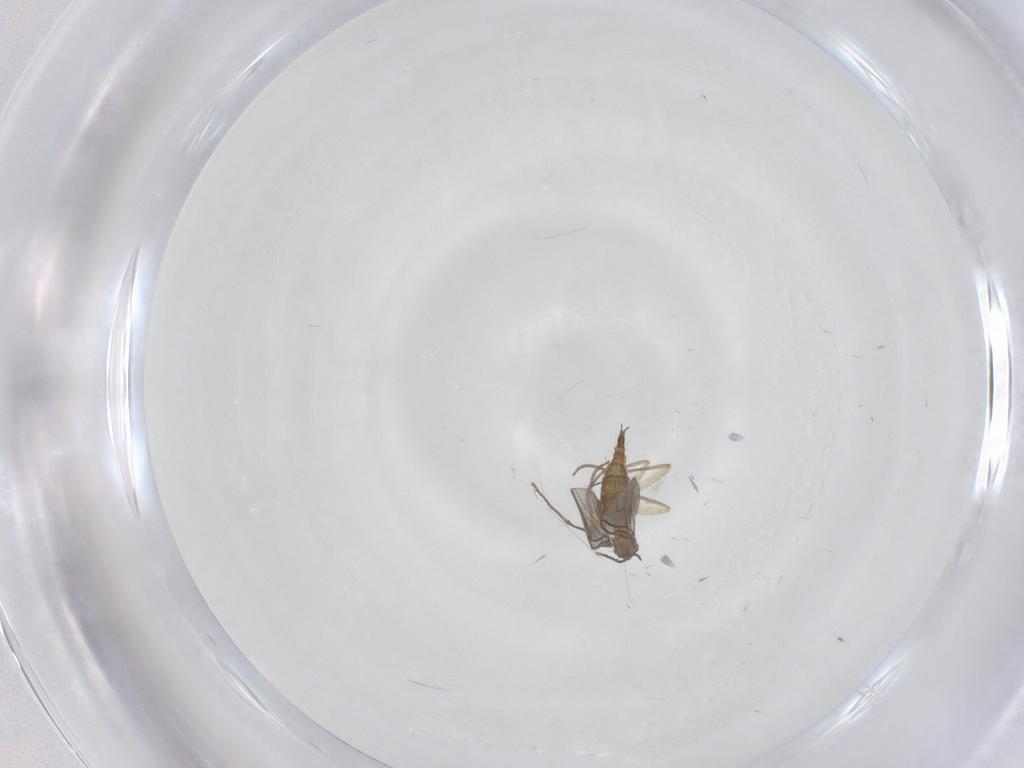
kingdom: Animalia
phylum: Arthropoda
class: Insecta
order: Diptera
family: Sciaridae
